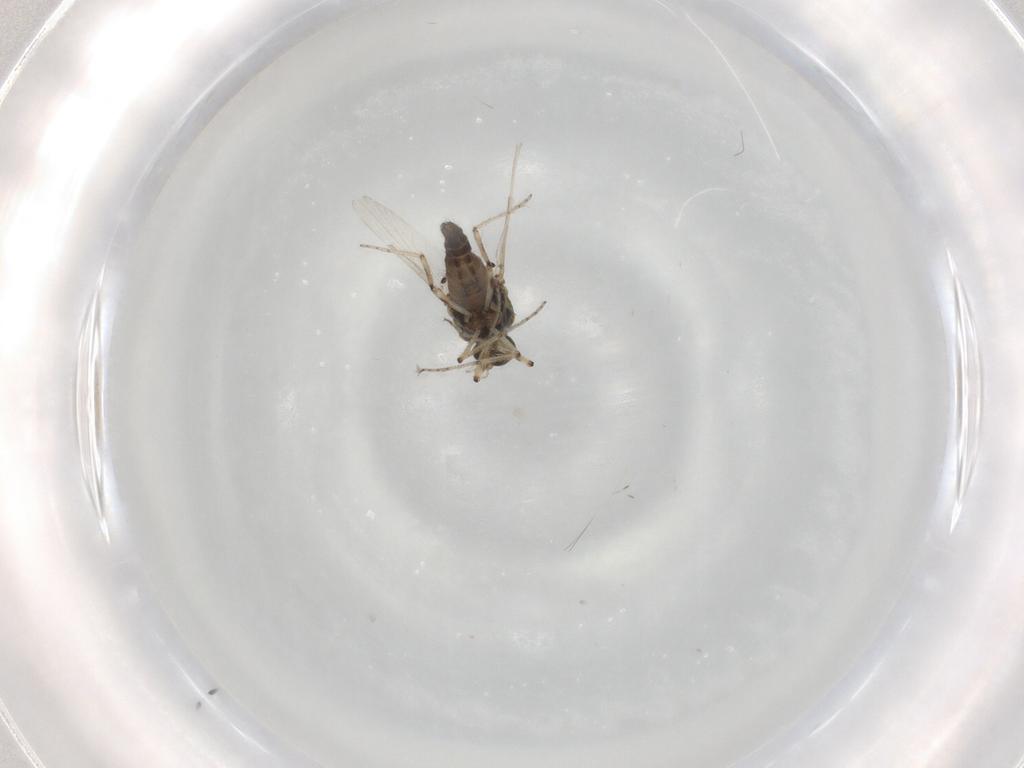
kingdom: Animalia
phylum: Arthropoda
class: Insecta
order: Diptera
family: Ceratopogonidae
